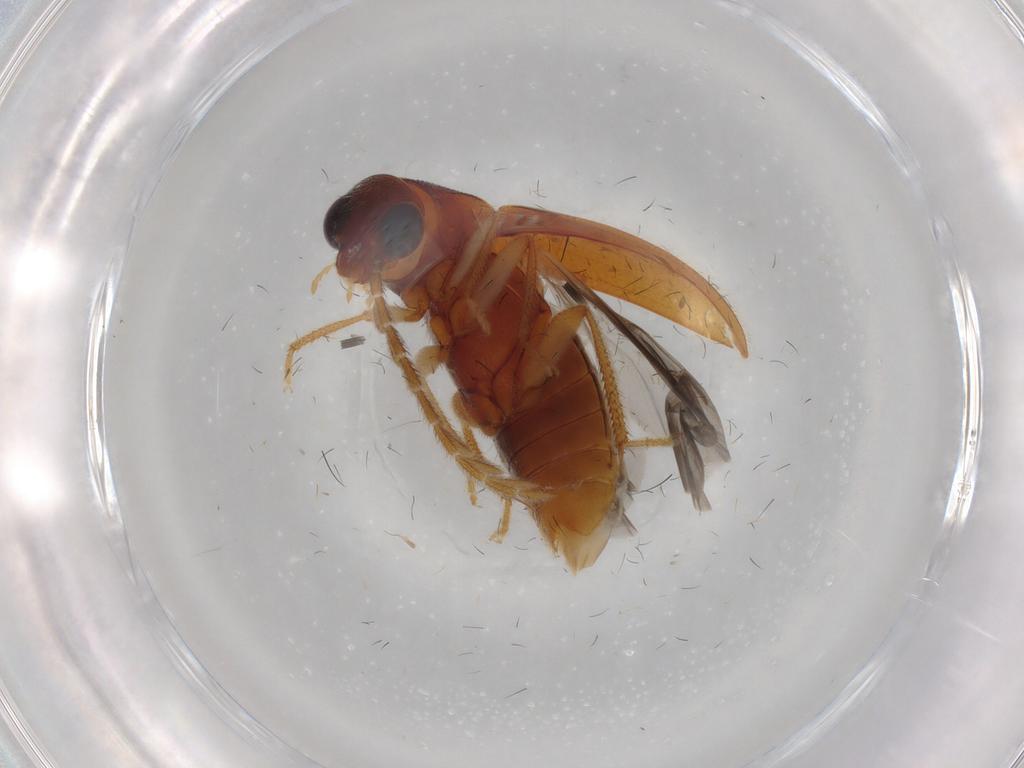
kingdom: Animalia
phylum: Arthropoda
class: Insecta
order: Coleoptera
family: Ptilodactylidae
